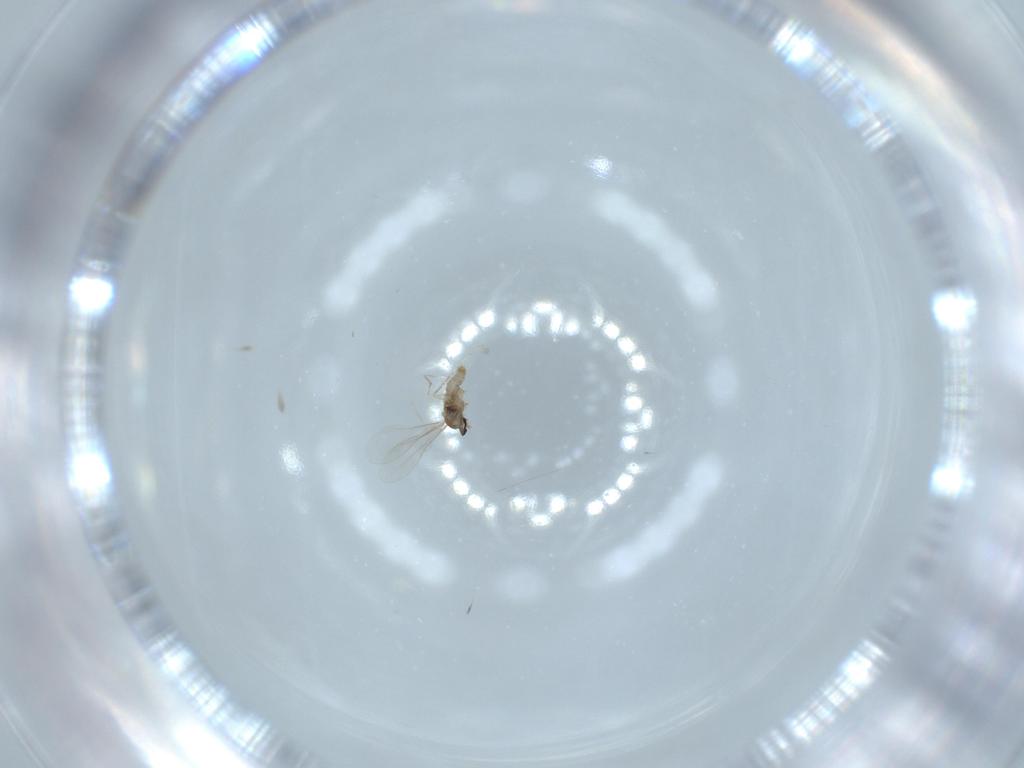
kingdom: Animalia
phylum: Arthropoda
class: Insecta
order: Diptera
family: Cecidomyiidae
